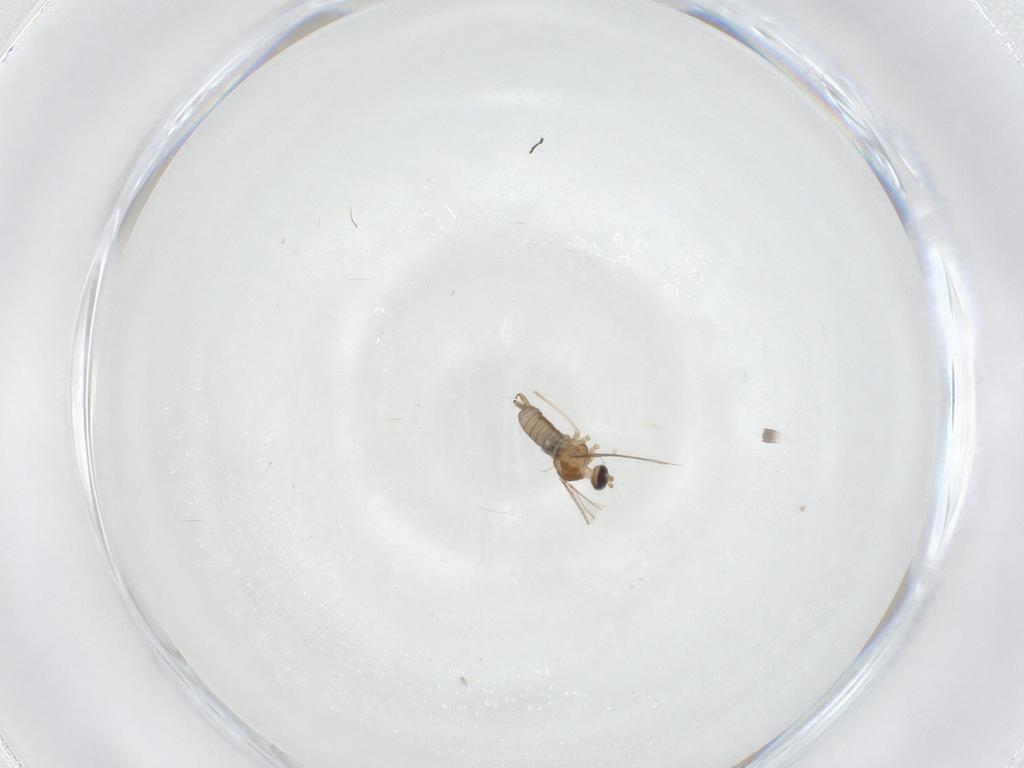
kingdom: Animalia
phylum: Arthropoda
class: Insecta
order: Diptera
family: Cecidomyiidae
